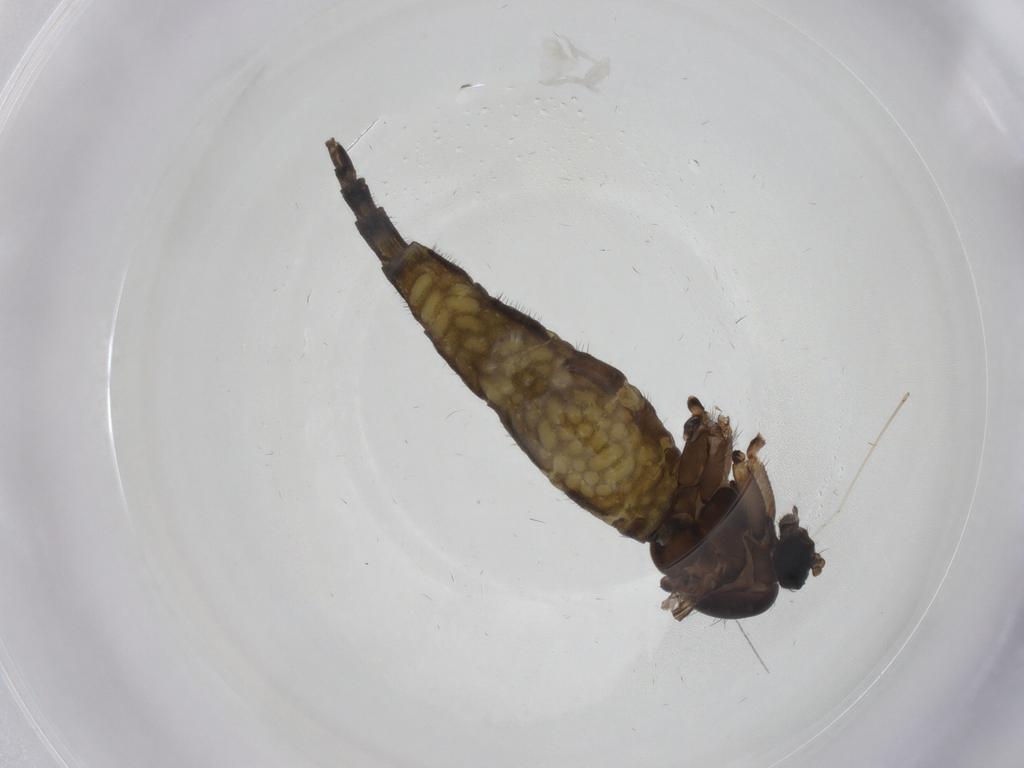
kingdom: Animalia
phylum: Arthropoda
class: Insecta
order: Diptera
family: Sciaridae
